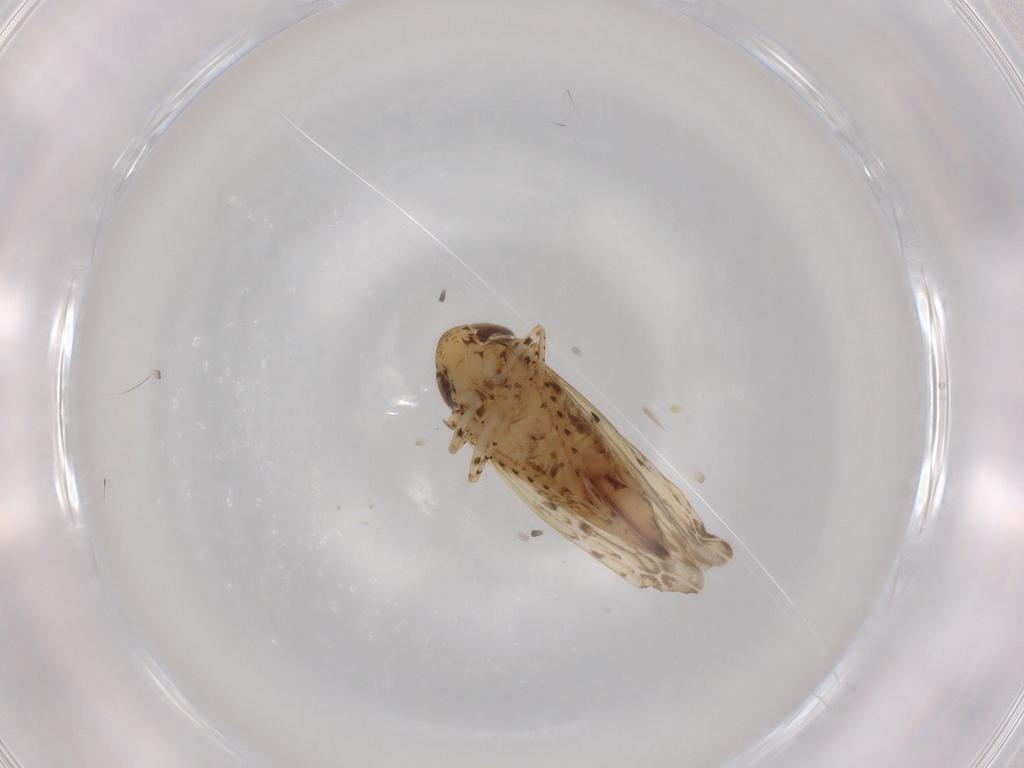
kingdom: Animalia
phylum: Arthropoda
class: Insecta
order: Hemiptera
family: Cicadellidae
